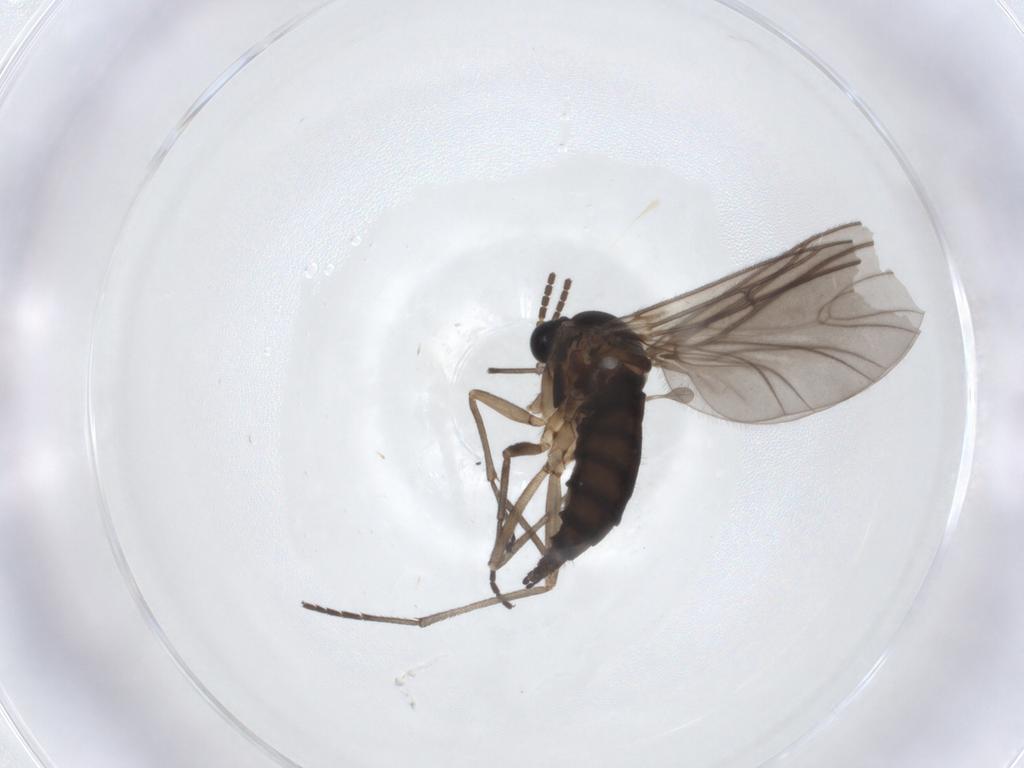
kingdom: Animalia
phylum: Arthropoda
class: Insecta
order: Diptera
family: Sciaridae
